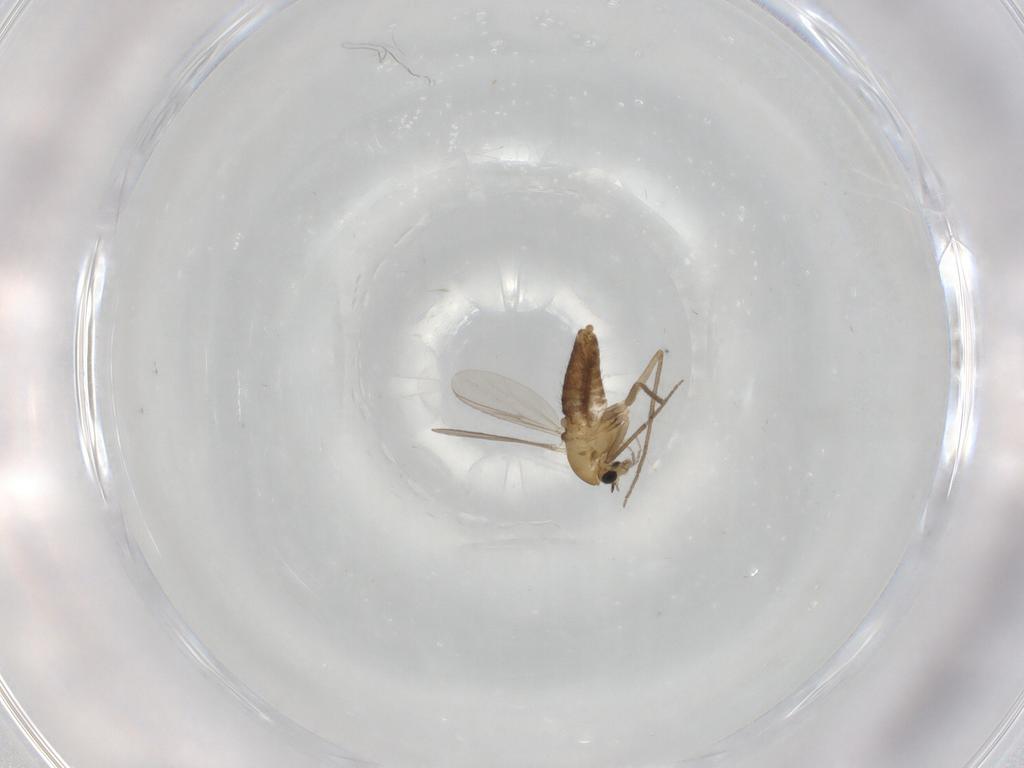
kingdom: Animalia
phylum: Arthropoda
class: Insecta
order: Diptera
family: Chironomidae
